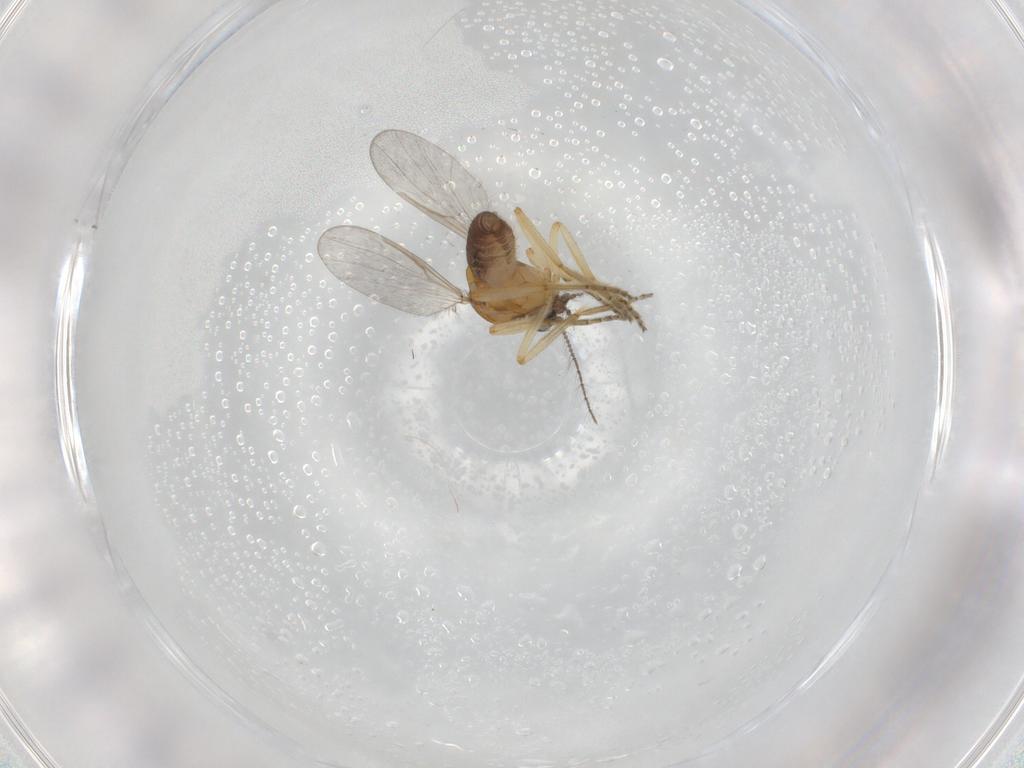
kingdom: Animalia
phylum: Arthropoda
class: Insecta
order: Diptera
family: Ceratopogonidae
